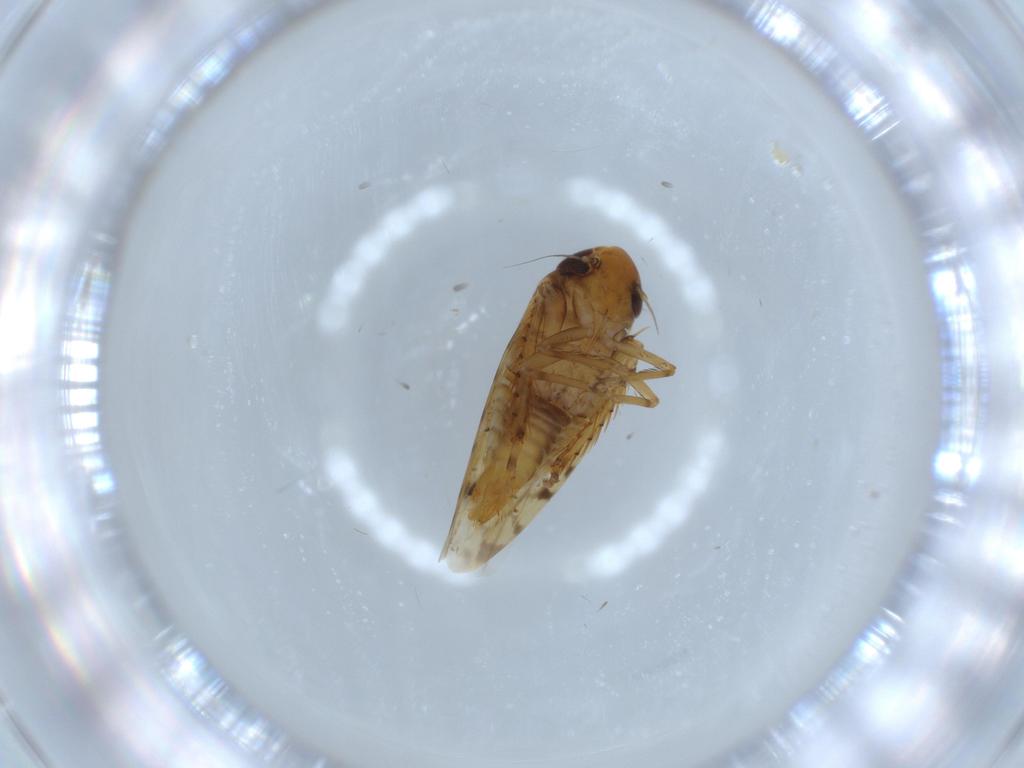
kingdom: Animalia
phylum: Arthropoda
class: Insecta
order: Hemiptera
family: Cicadellidae
